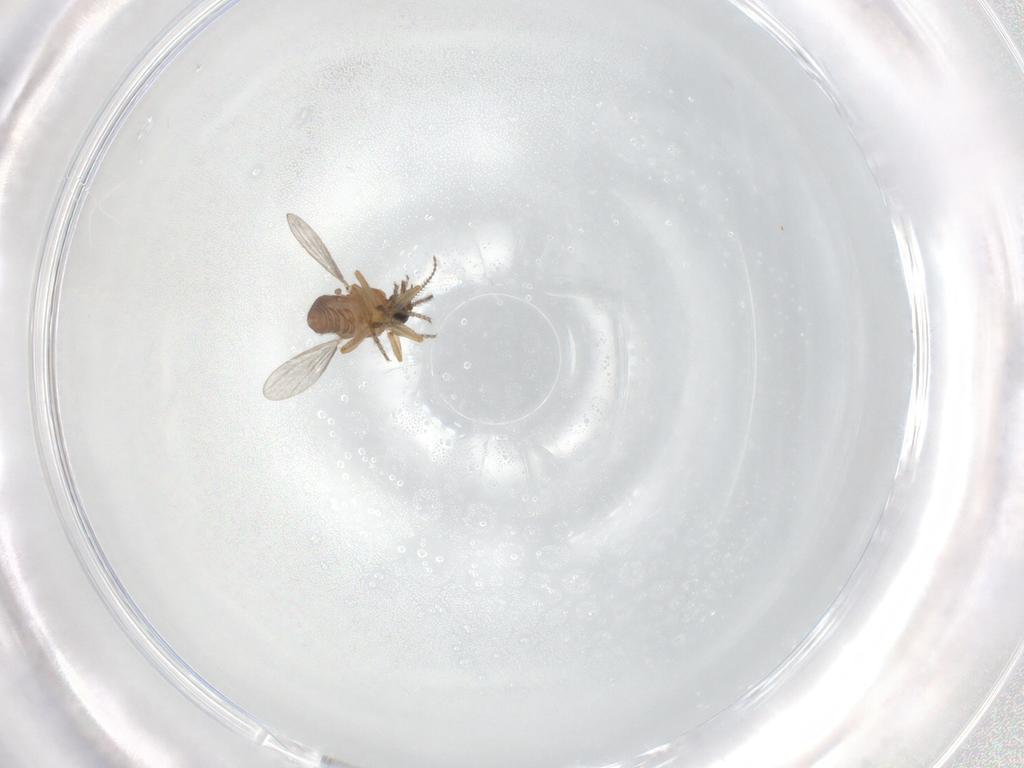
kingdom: Animalia
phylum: Arthropoda
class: Insecta
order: Diptera
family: Ceratopogonidae
